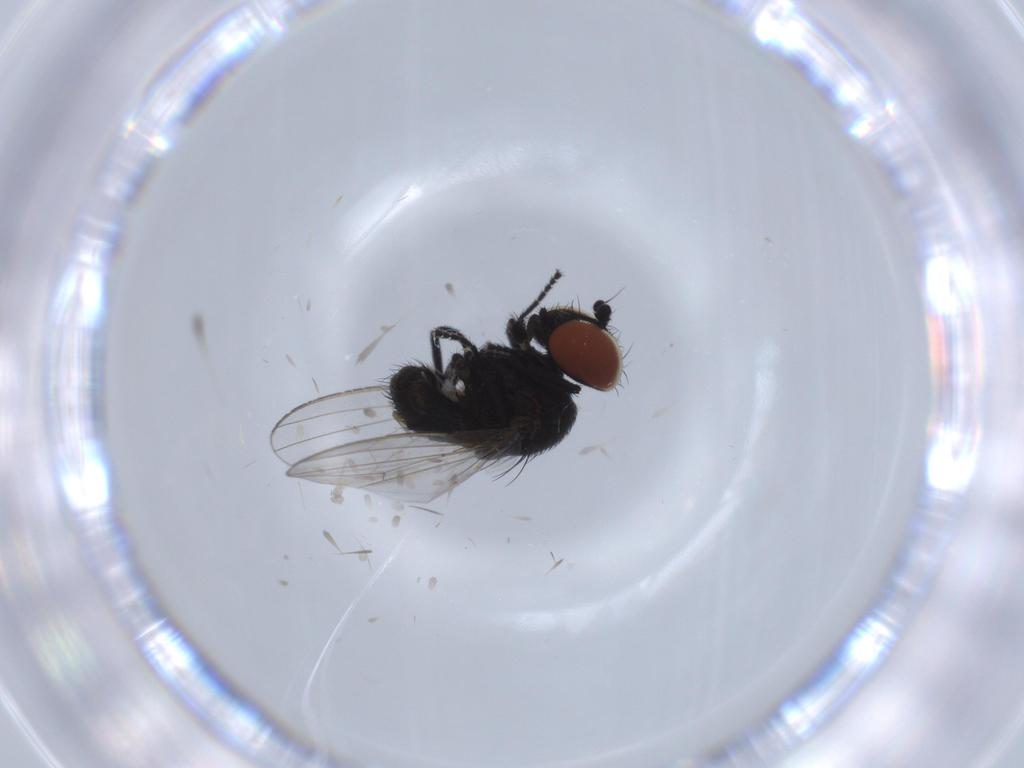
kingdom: Animalia
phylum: Arthropoda
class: Insecta
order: Diptera
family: Milichiidae
